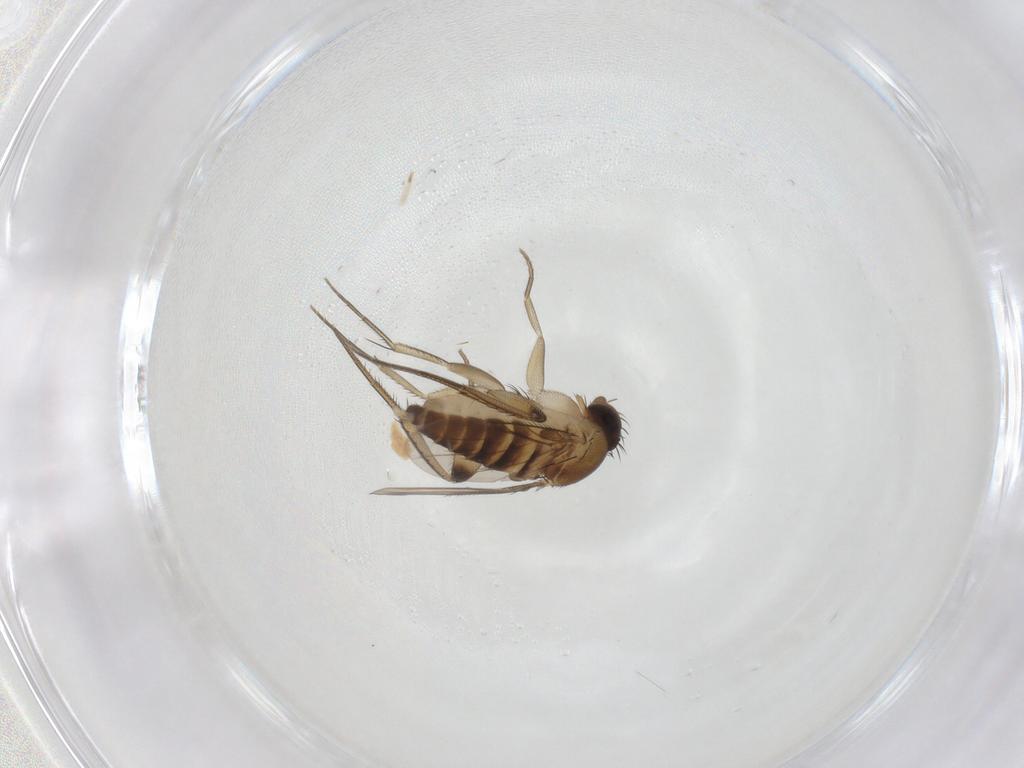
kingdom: Animalia
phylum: Arthropoda
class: Insecta
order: Diptera
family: Phoridae
